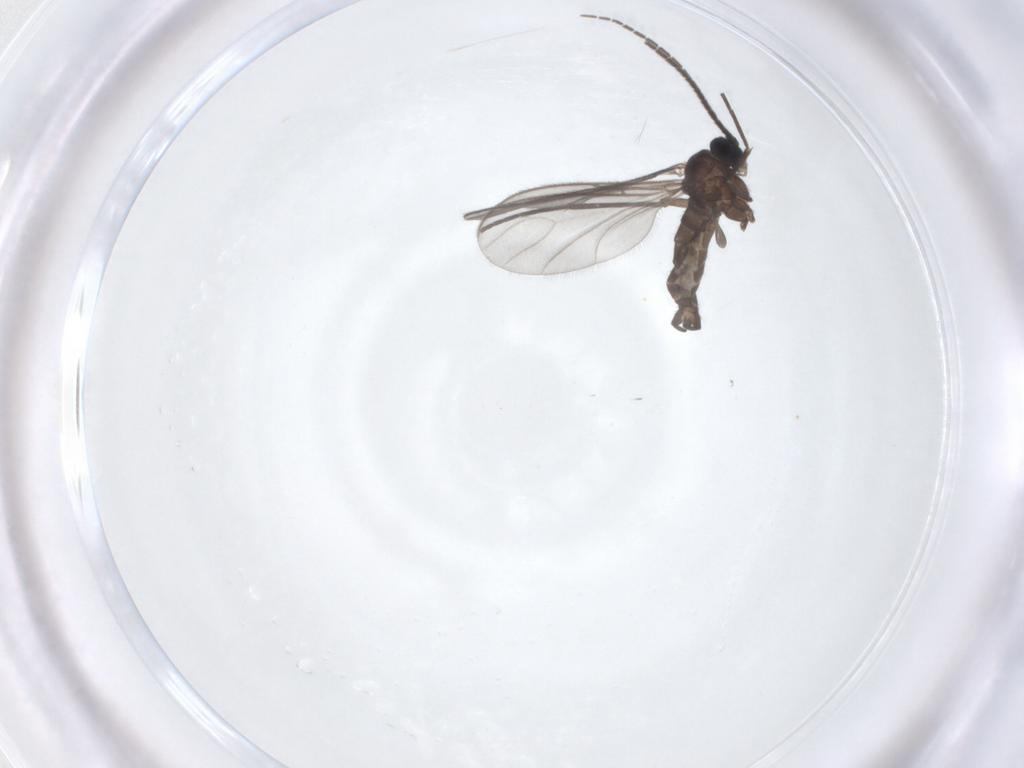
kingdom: Animalia
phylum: Arthropoda
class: Insecta
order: Diptera
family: Sciaridae
